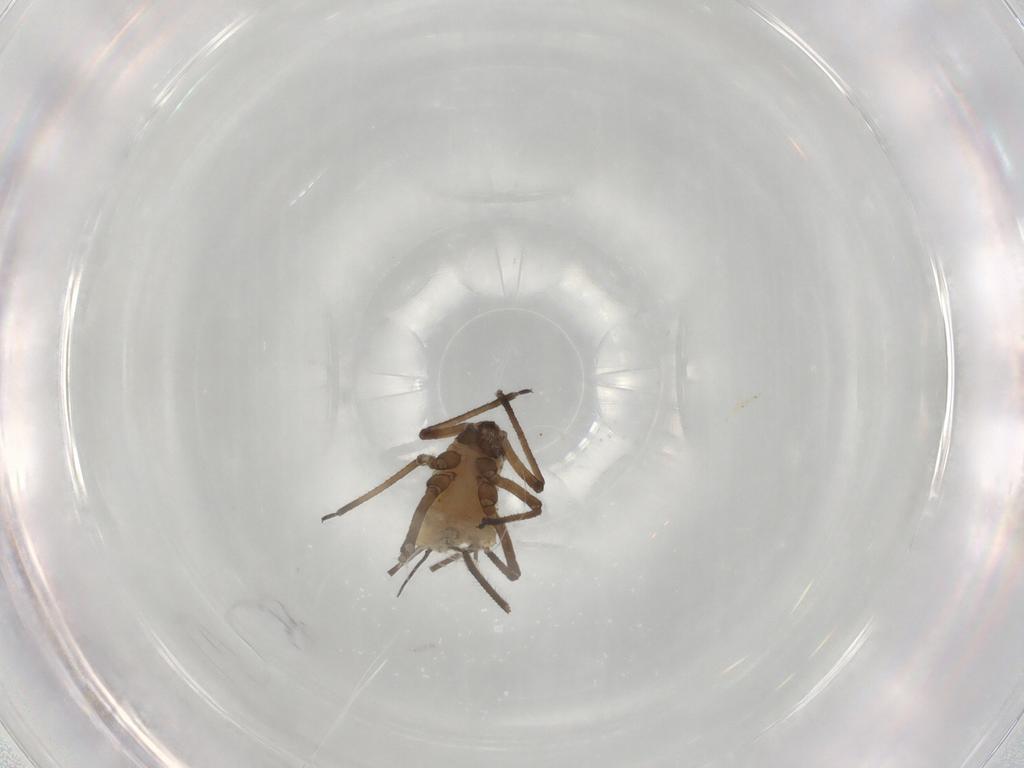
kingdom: Animalia
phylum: Arthropoda
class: Insecta
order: Hemiptera
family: Aphididae
